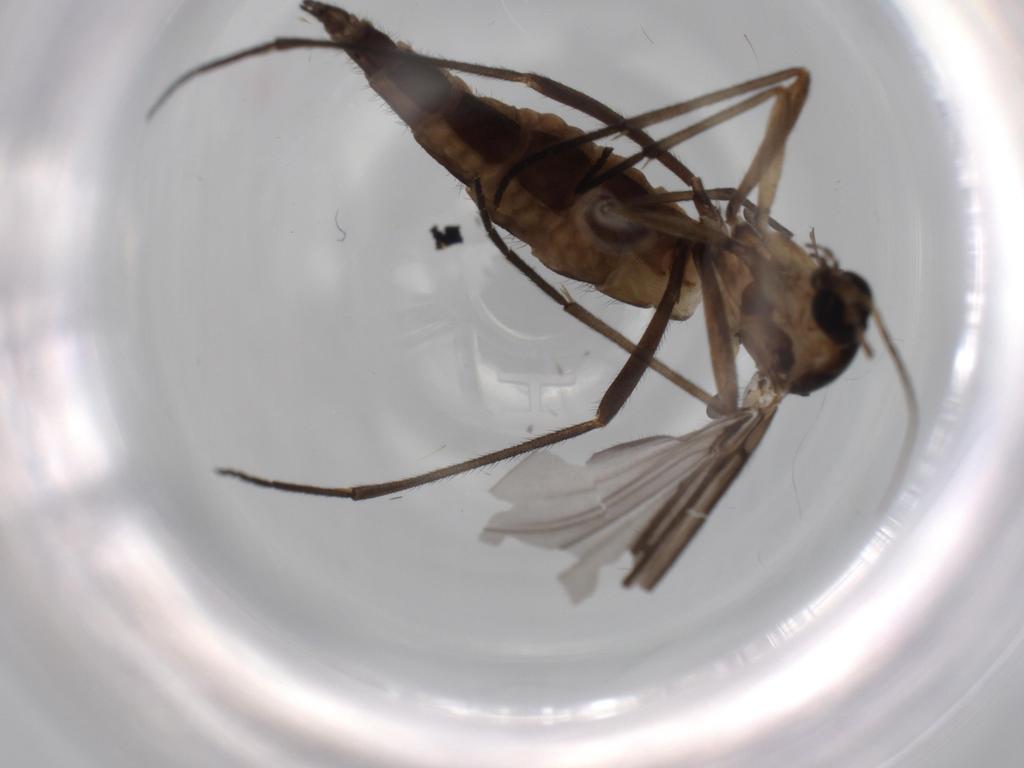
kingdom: Animalia
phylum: Arthropoda
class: Insecta
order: Diptera
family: Sciaridae
